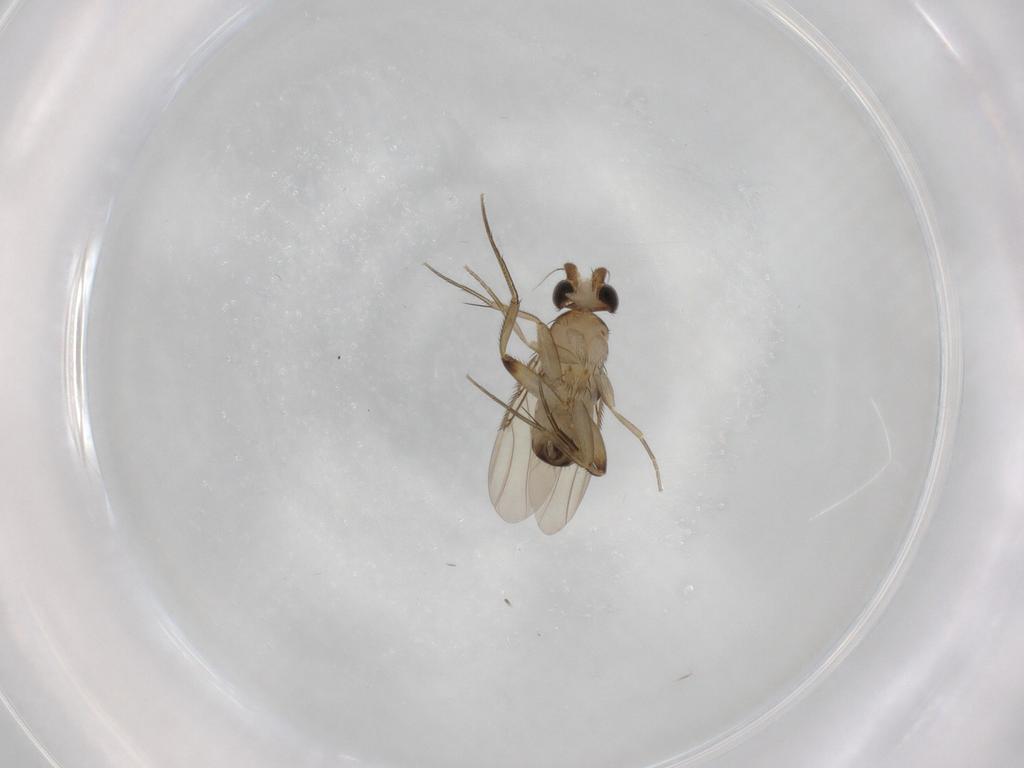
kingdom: Animalia
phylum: Arthropoda
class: Insecta
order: Diptera
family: Phoridae
